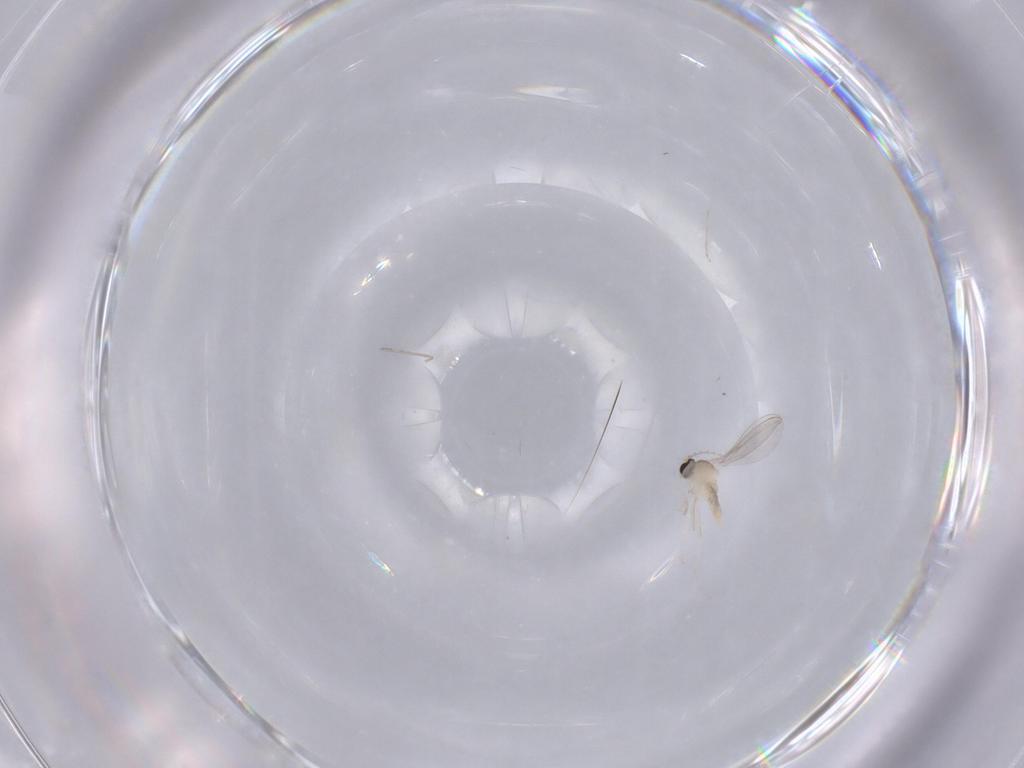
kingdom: Animalia
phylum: Arthropoda
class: Insecta
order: Diptera
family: Cecidomyiidae
